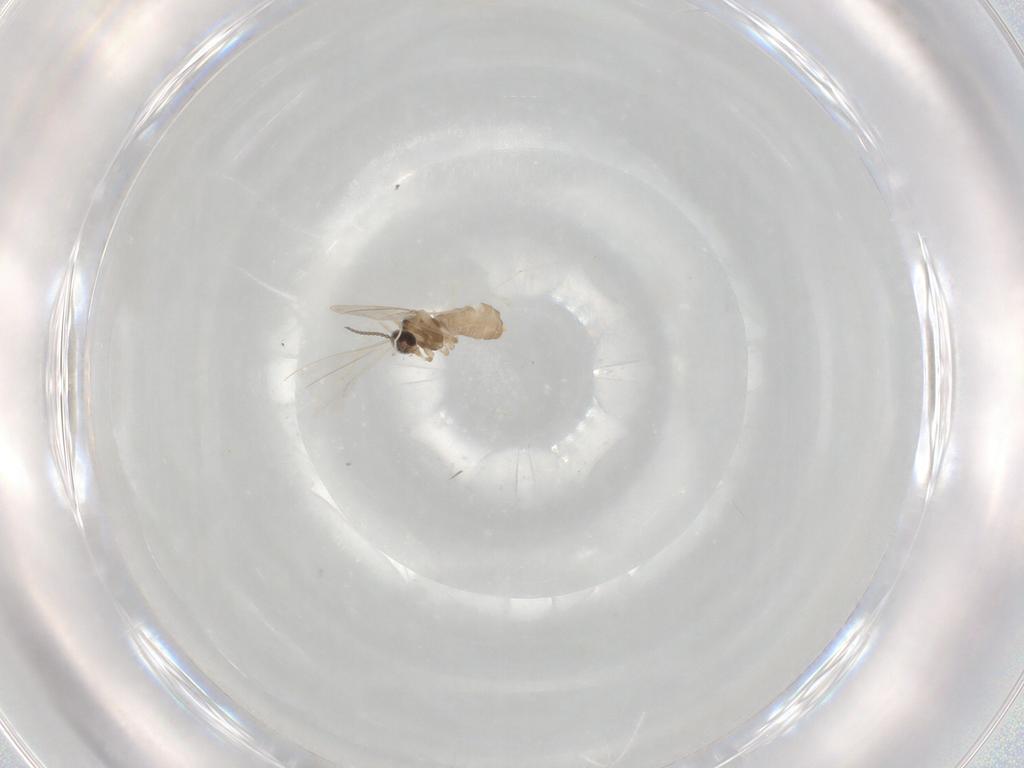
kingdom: Animalia
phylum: Arthropoda
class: Insecta
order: Diptera
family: Cecidomyiidae
